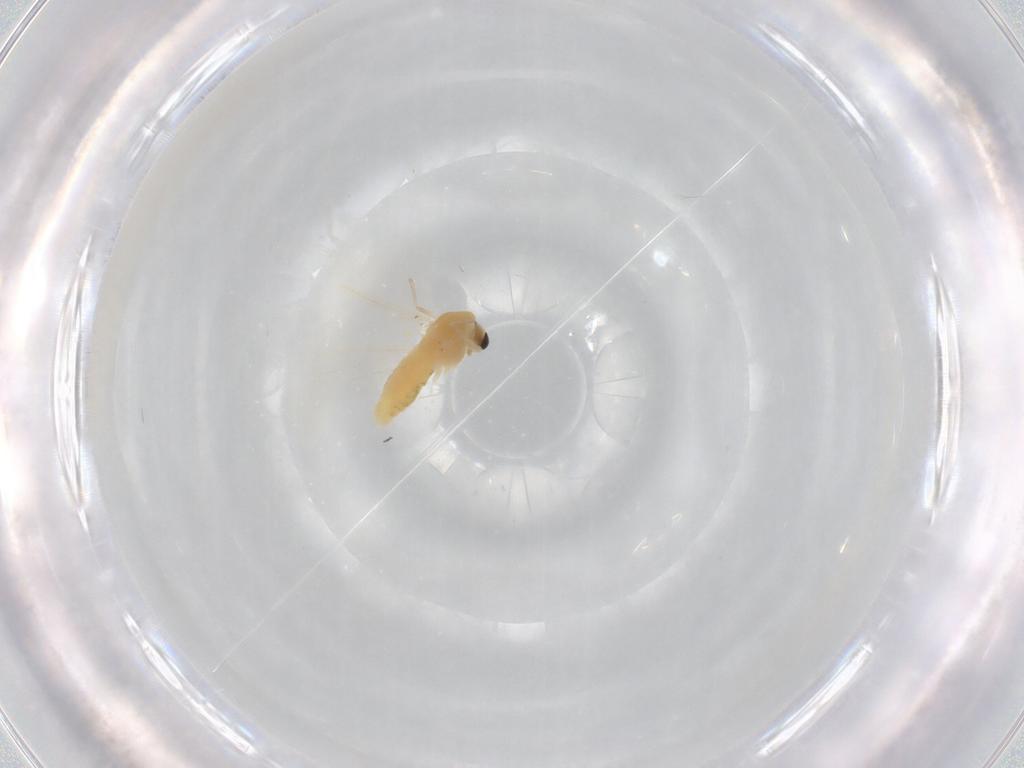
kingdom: Animalia
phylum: Arthropoda
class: Insecta
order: Diptera
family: Chironomidae
